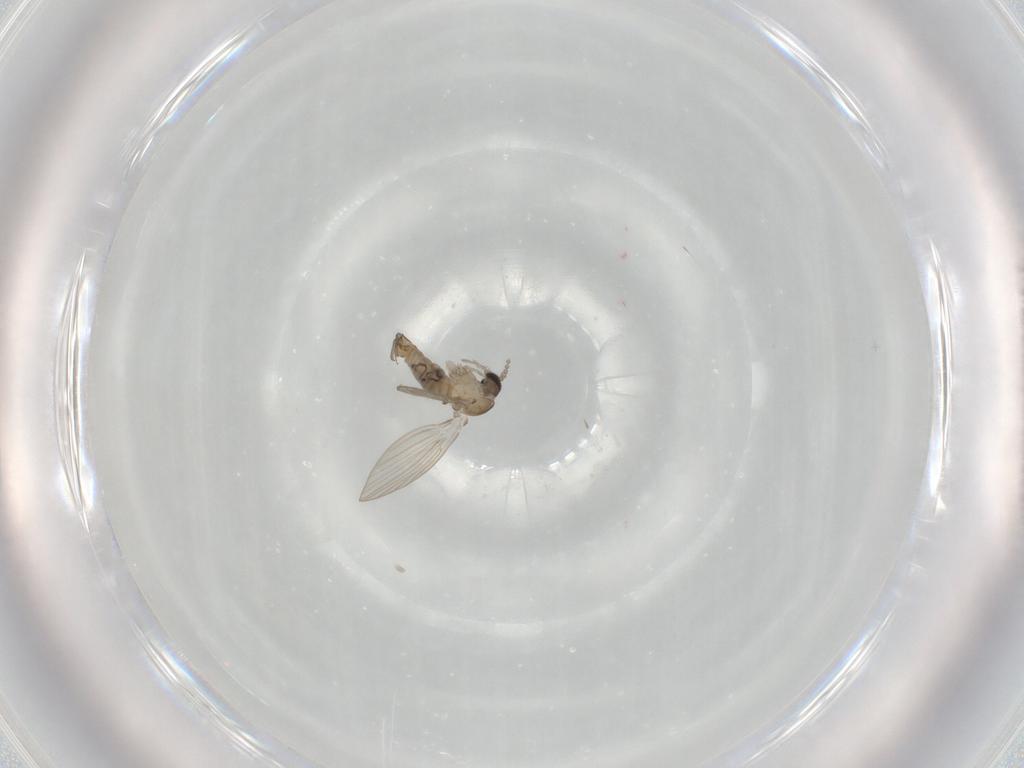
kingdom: Animalia
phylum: Arthropoda
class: Insecta
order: Diptera
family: Psychodidae
